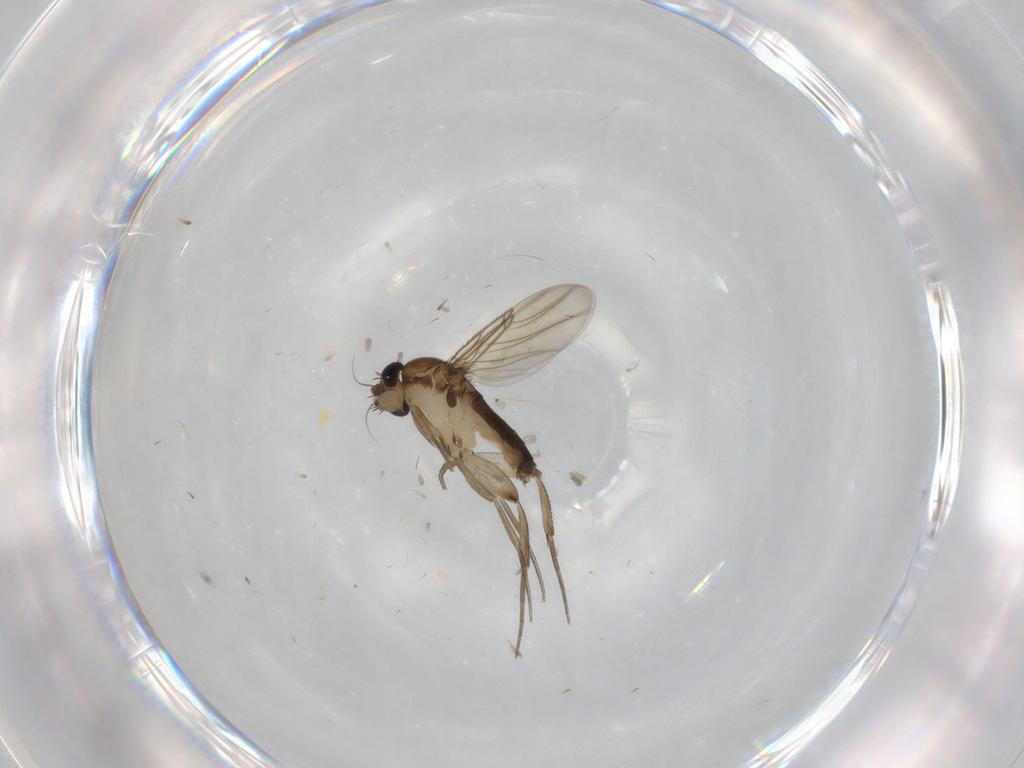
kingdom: Animalia
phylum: Arthropoda
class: Insecta
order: Diptera
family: Phoridae
